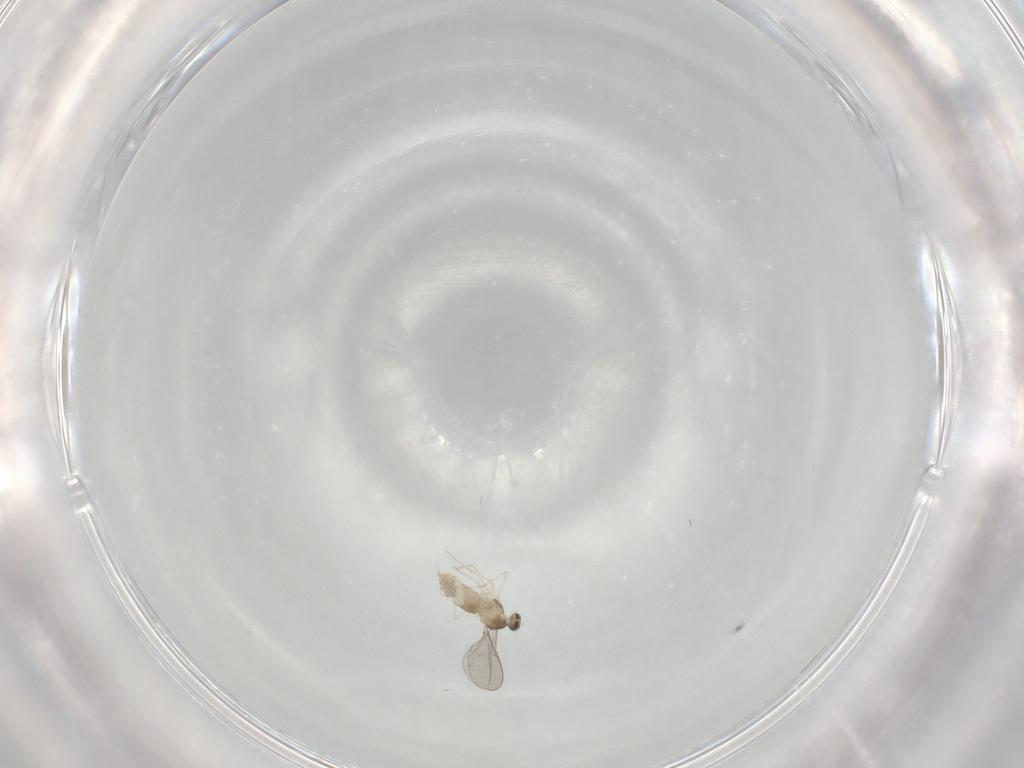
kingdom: Animalia
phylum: Arthropoda
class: Insecta
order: Diptera
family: Cecidomyiidae
